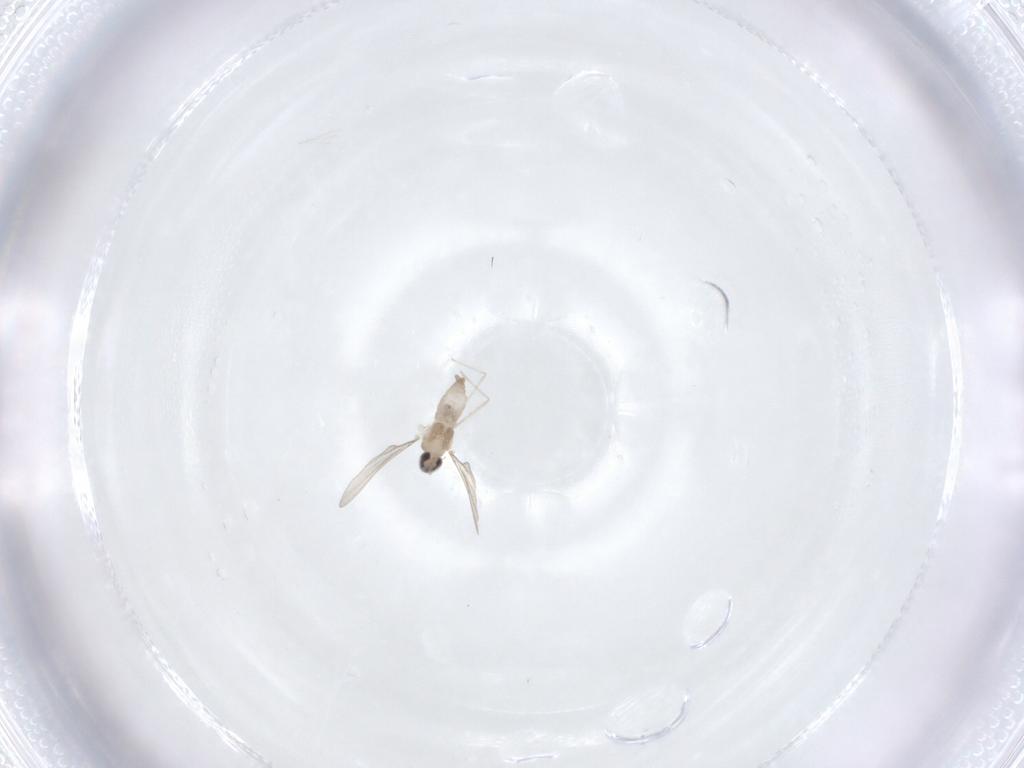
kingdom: Animalia
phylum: Arthropoda
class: Insecta
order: Diptera
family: Cecidomyiidae
